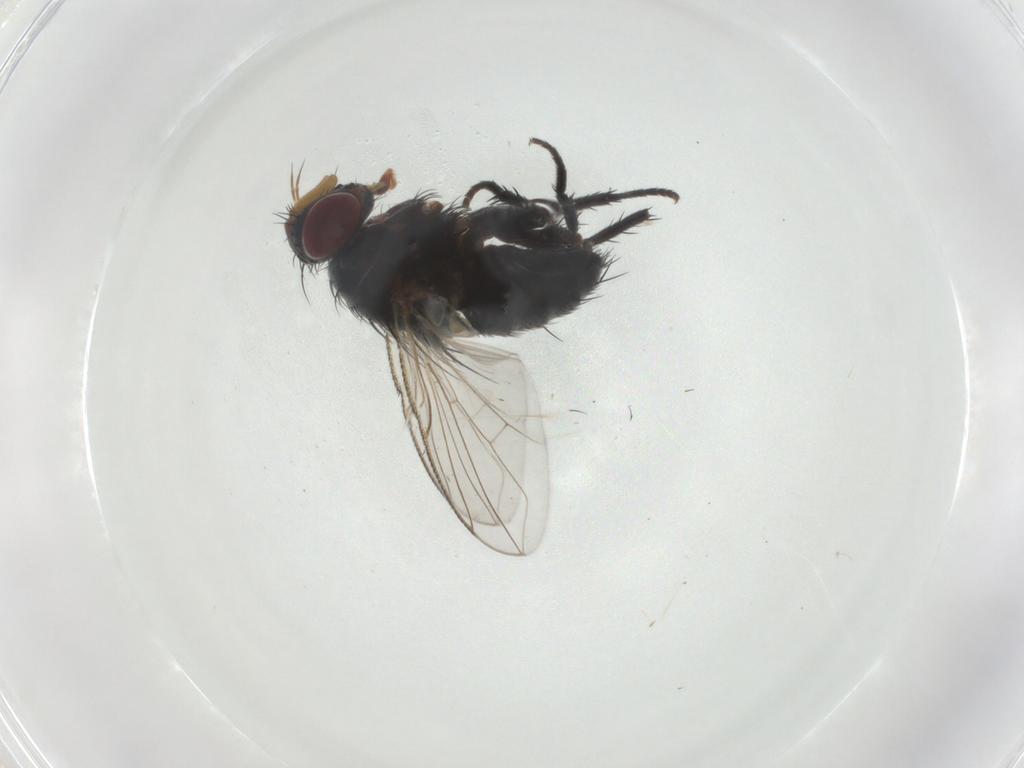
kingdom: Animalia
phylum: Arthropoda
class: Insecta
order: Diptera
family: Tachinidae
